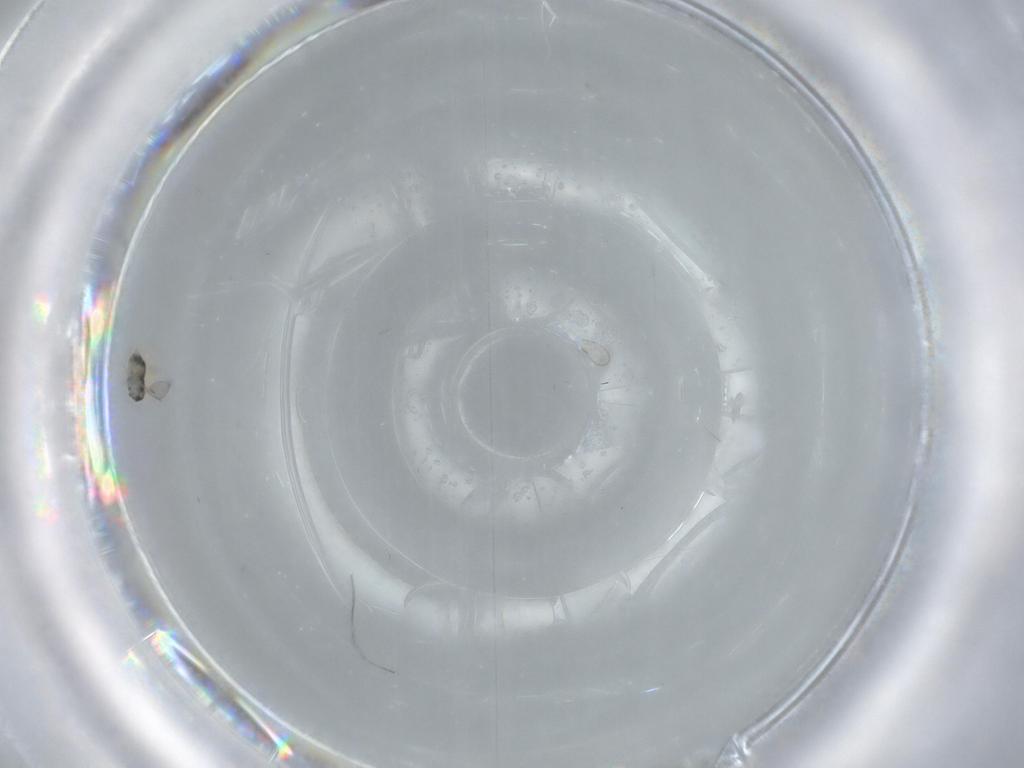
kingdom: Animalia
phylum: Arthropoda
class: Insecta
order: Hymenoptera
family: Aphelinidae
